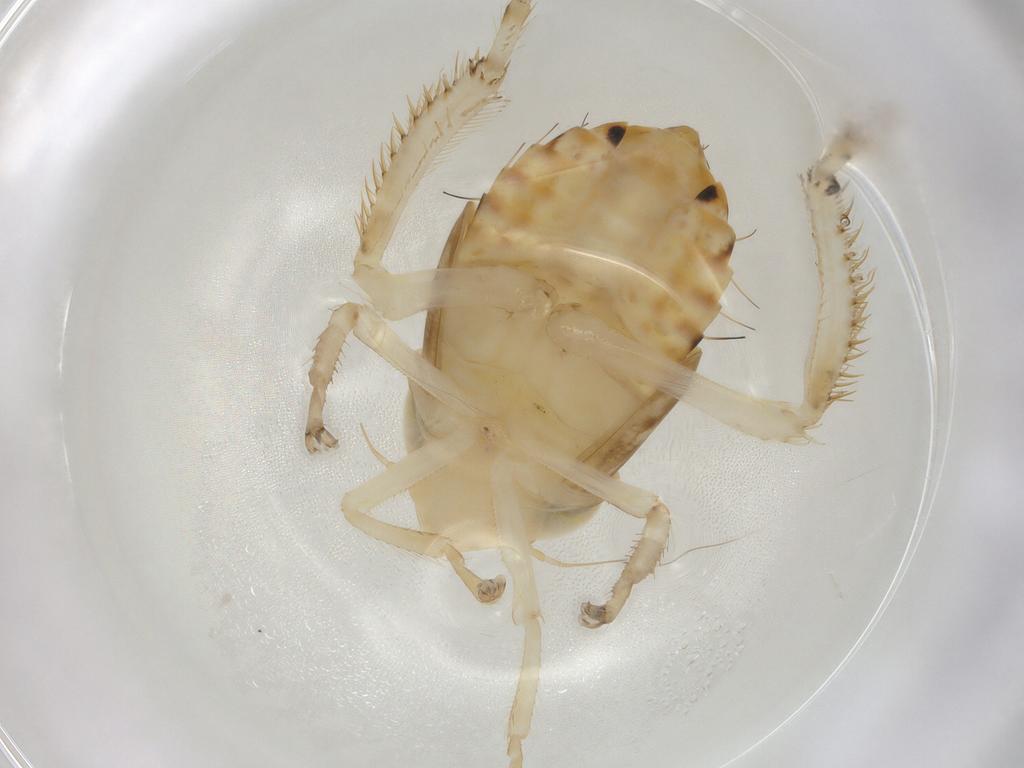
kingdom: Animalia
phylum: Arthropoda
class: Insecta
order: Hemiptera
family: Cicadellidae
